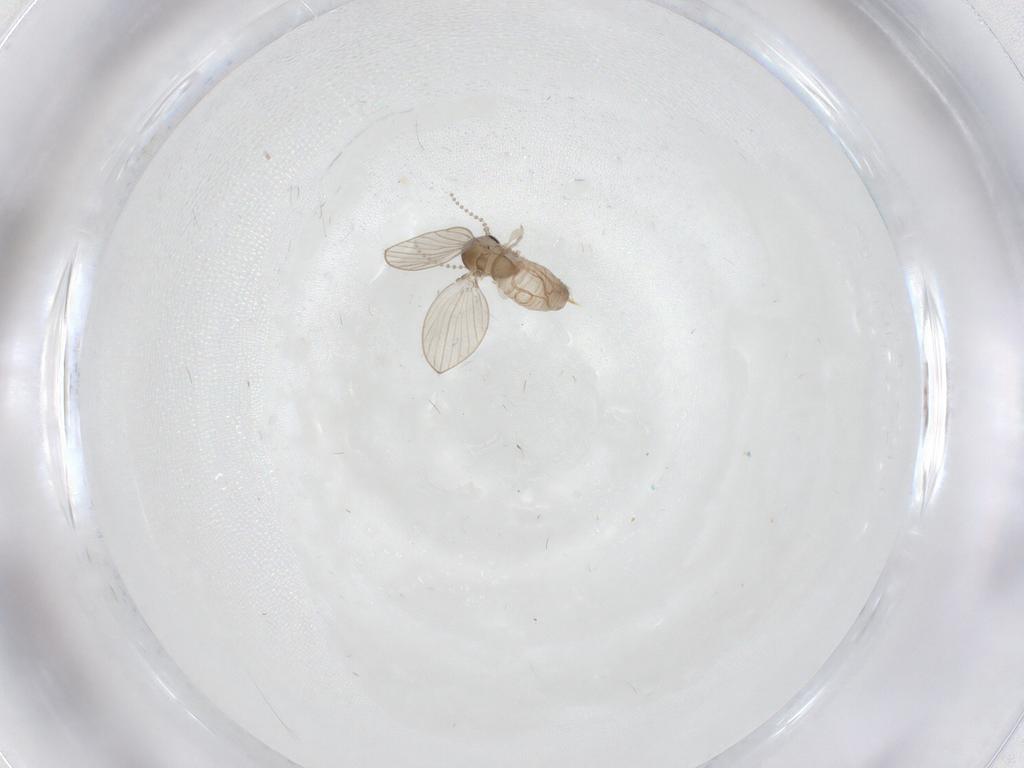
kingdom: Animalia
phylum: Arthropoda
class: Insecta
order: Diptera
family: Psychodidae
